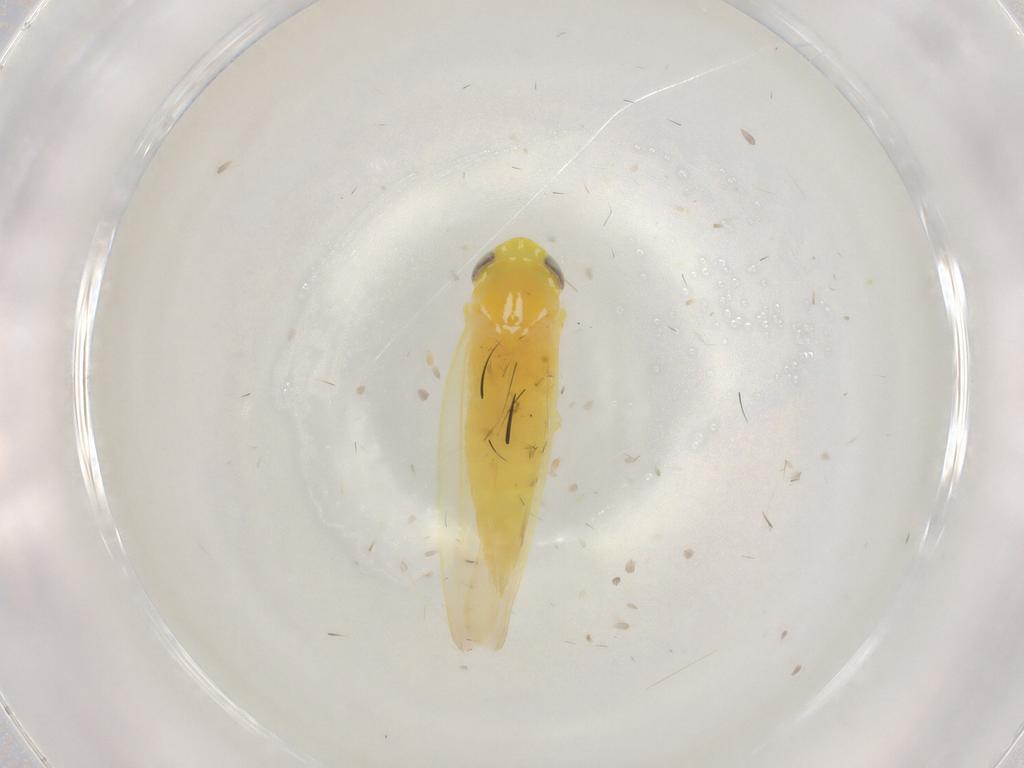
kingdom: Animalia
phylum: Arthropoda
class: Insecta
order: Hemiptera
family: Cicadellidae
